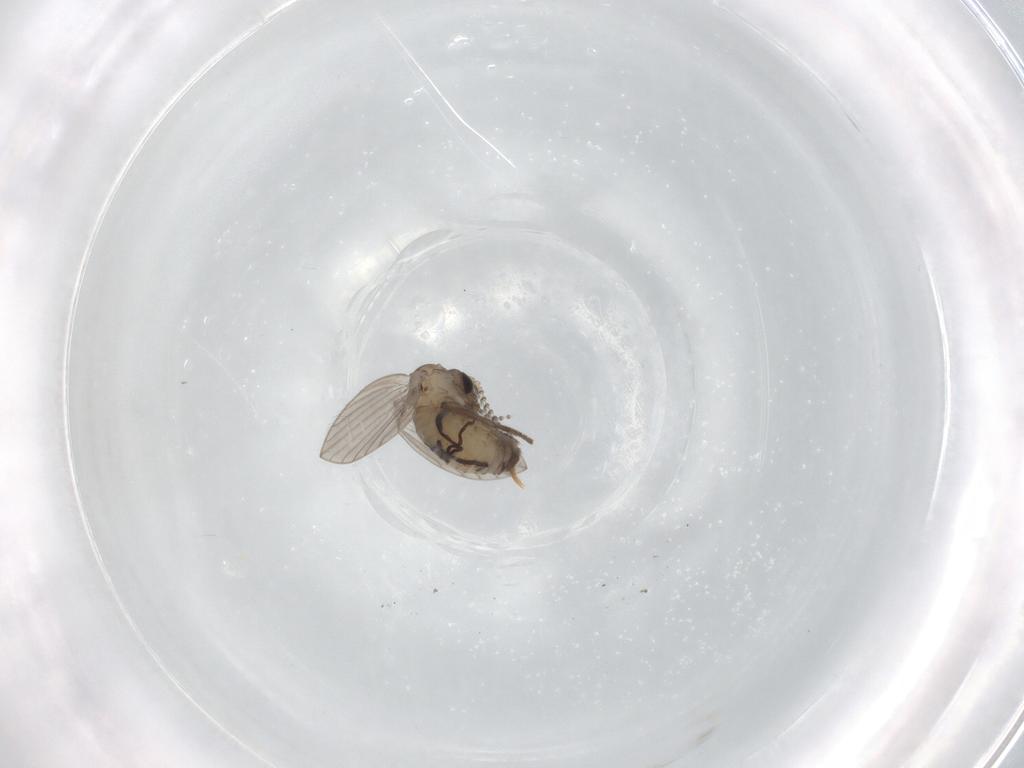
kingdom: Animalia
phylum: Arthropoda
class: Insecta
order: Diptera
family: Psychodidae
